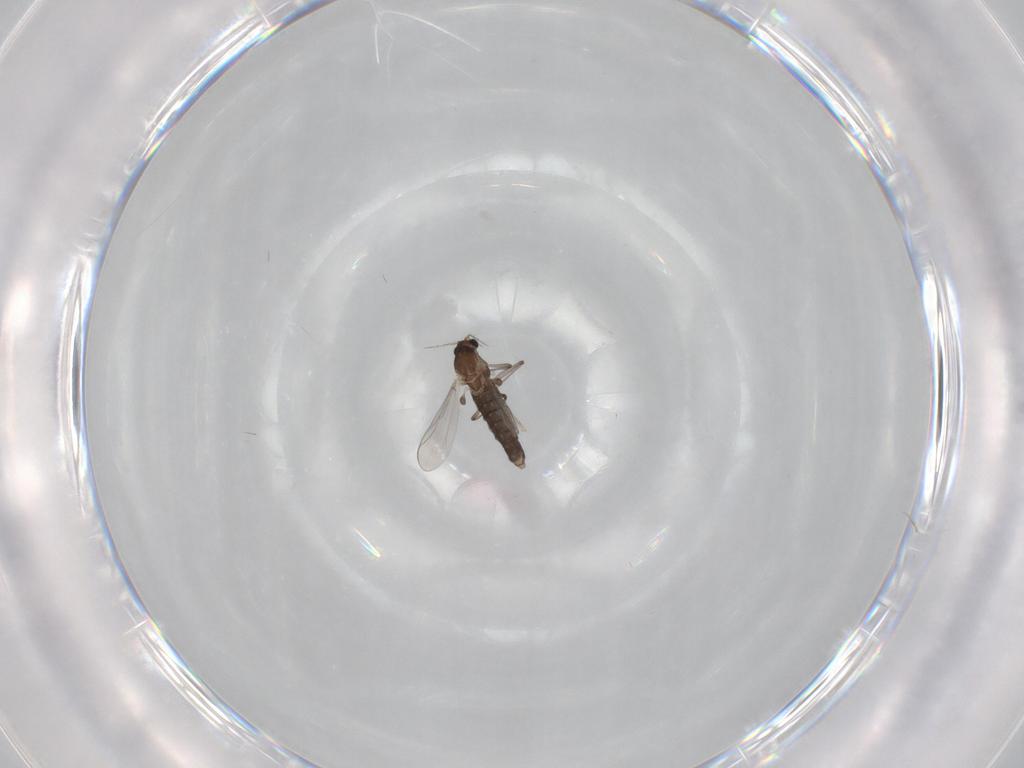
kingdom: Animalia
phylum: Arthropoda
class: Insecta
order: Diptera
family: Chironomidae
